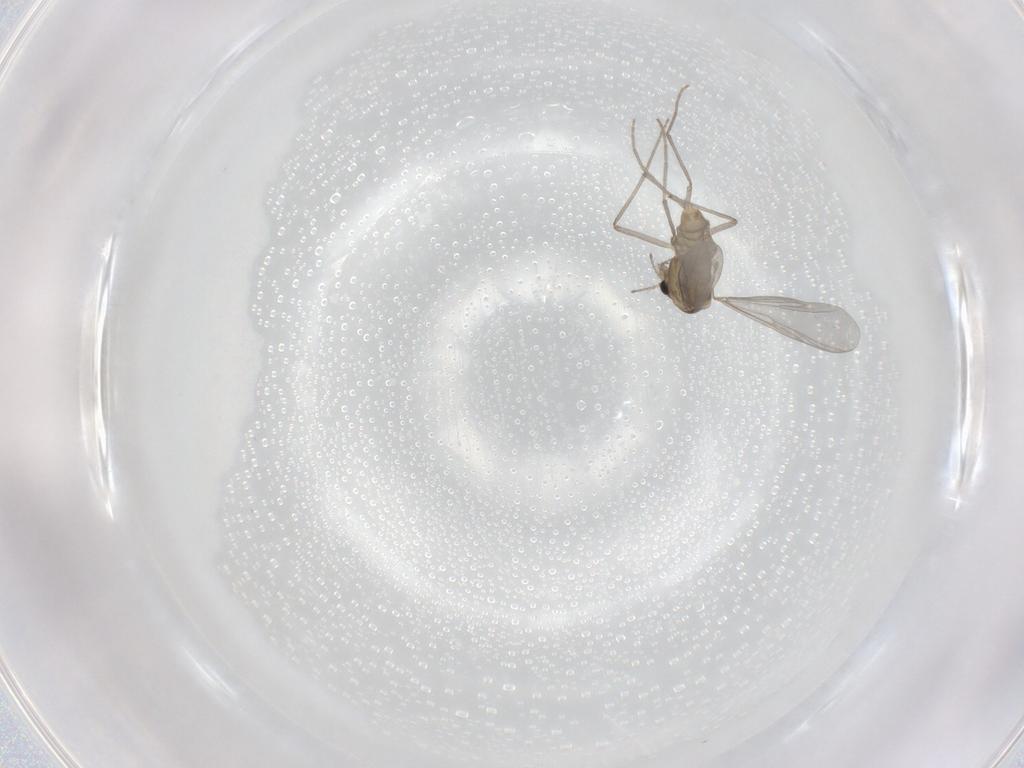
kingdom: Animalia
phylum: Arthropoda
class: Insecta
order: Diptera
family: Chironomidae
